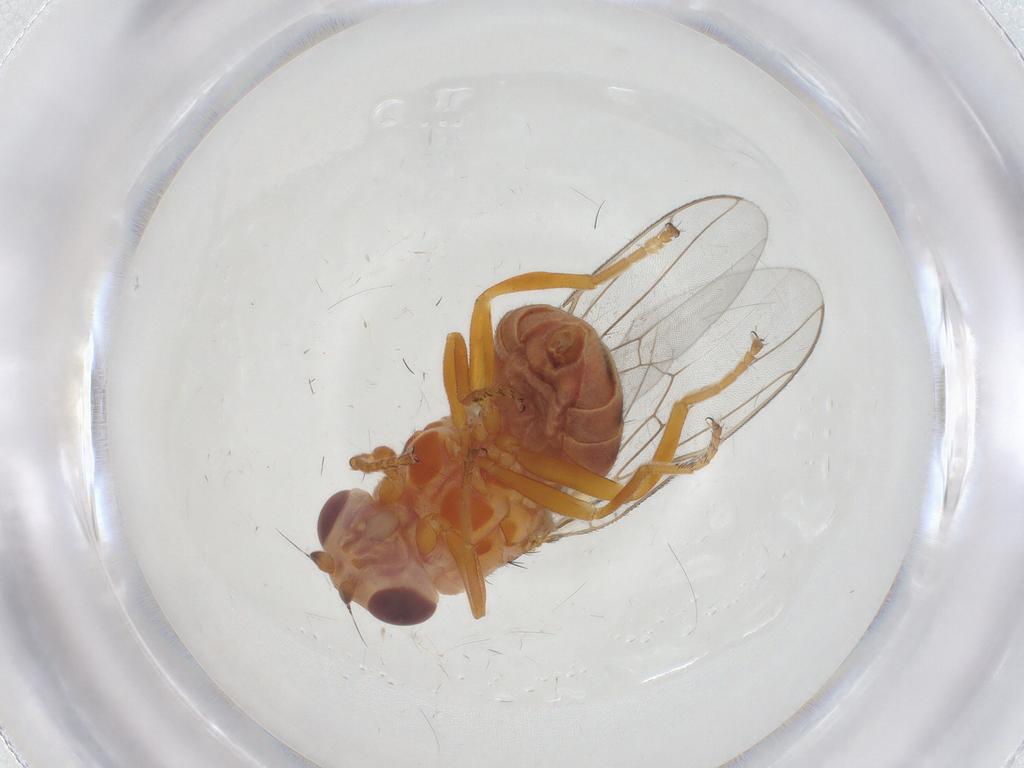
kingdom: Animalia
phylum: Arthropoda
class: Insecta
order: Diptera
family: Chloropidae
